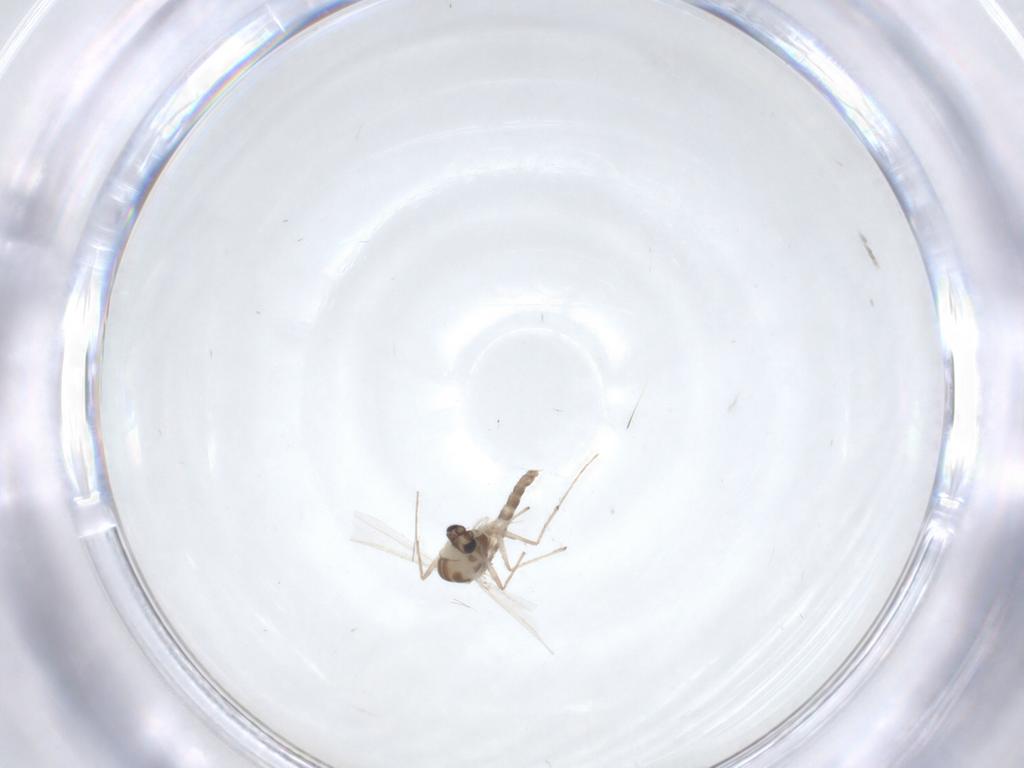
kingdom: Animalia
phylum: Arthropoda
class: Insecta
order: Diptera
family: Chironomidae
